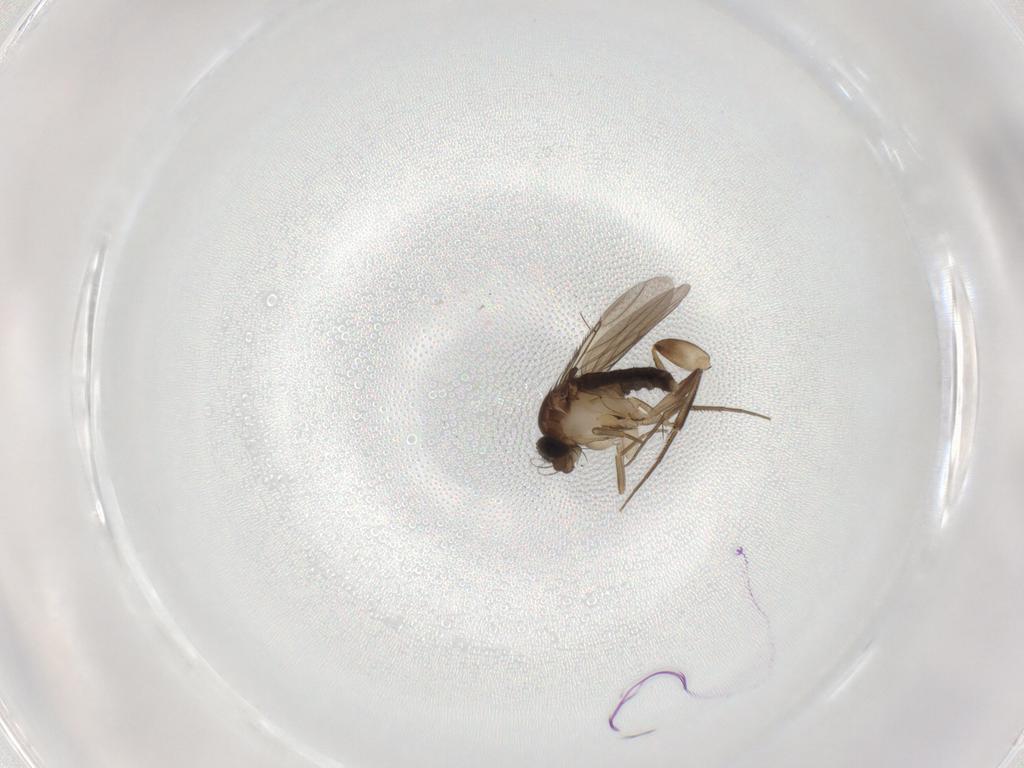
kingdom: Animalia
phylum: Arthropoda
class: Insecta
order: Diptera
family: Phoridae
